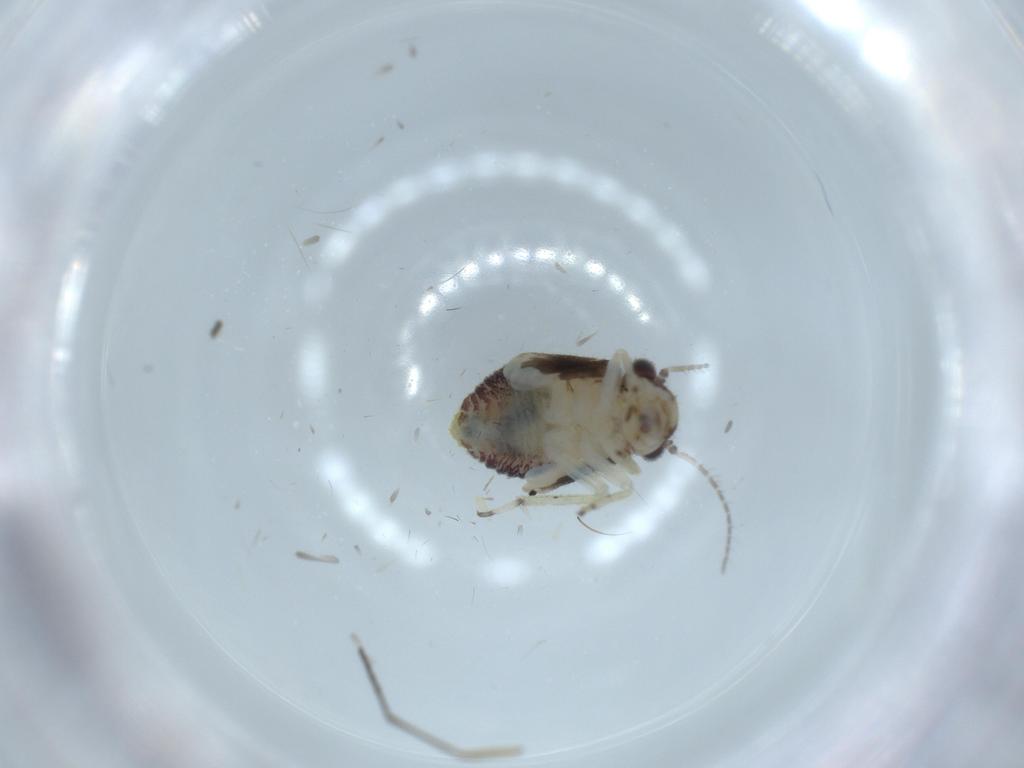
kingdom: Animalia
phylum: Arthropoda
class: Insecta
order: Psocodea
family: Psocidae
